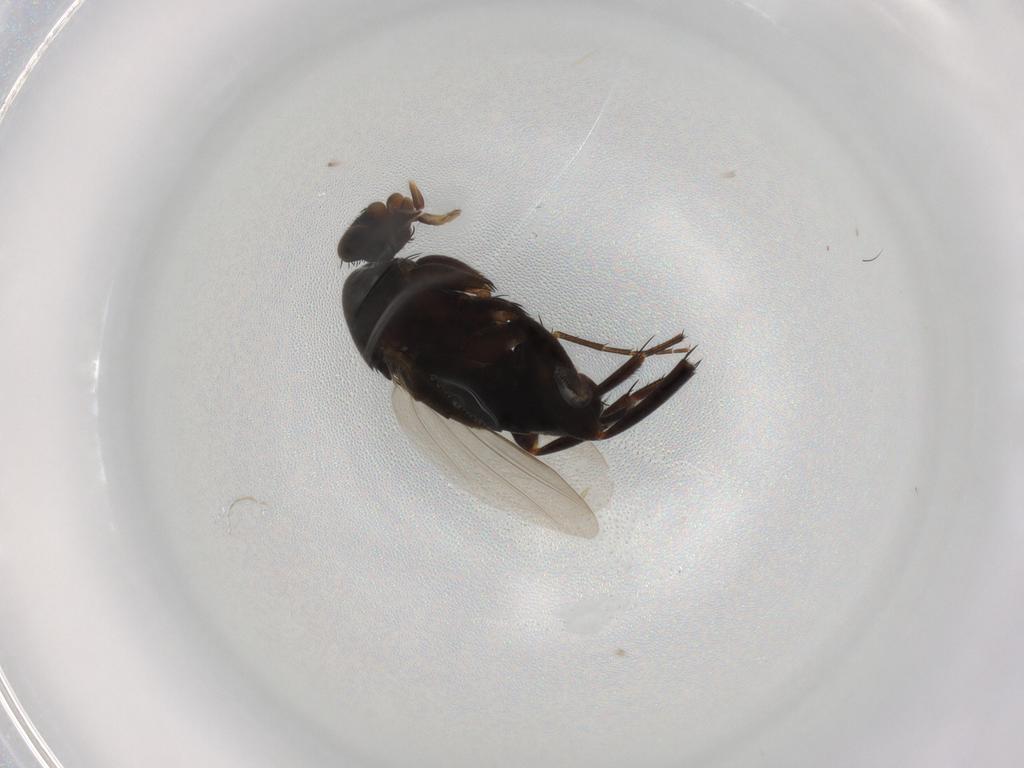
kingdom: Animalia
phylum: Arthropoda
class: Insecta
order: Diptera
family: Phoridae
